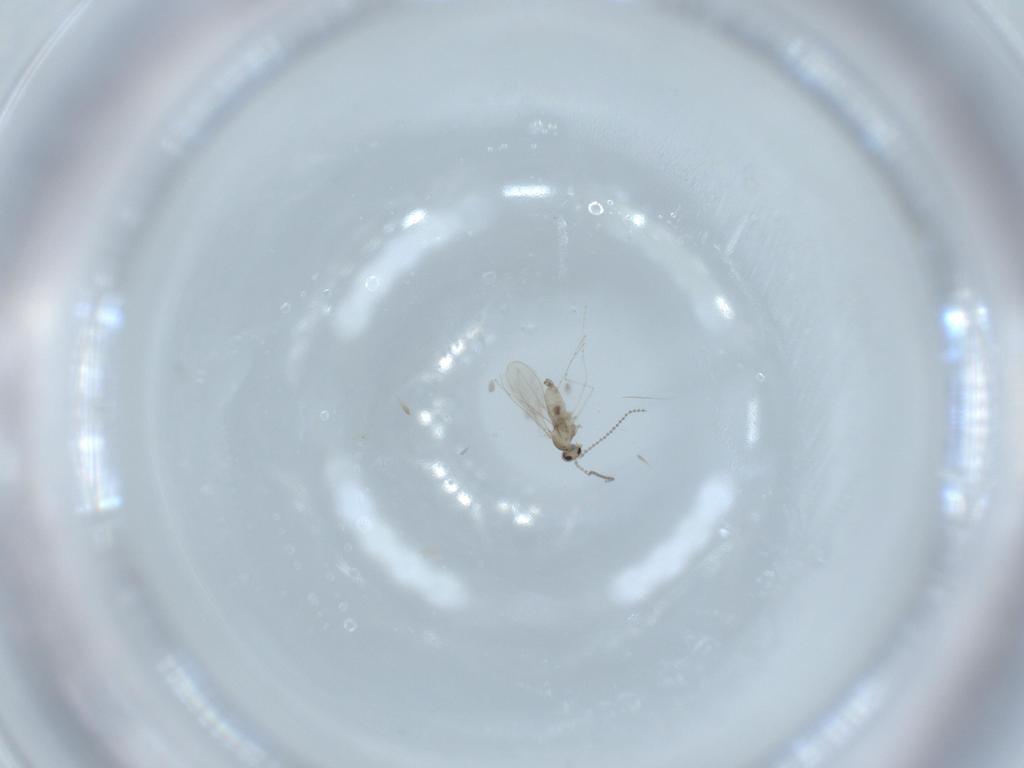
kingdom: Animalia
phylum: Arthropoda
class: Insecta
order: Diptera
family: Cecidomyiidae
